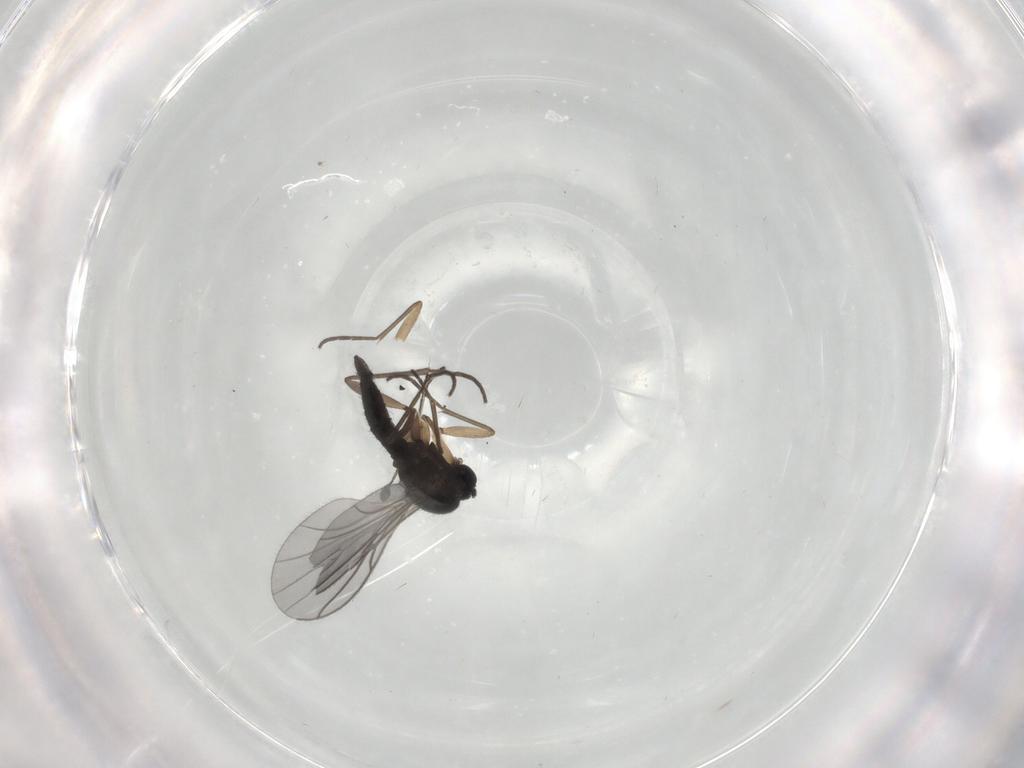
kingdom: Animalia
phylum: Arthropoda
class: Insecta
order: Diptera
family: Sciaridae
